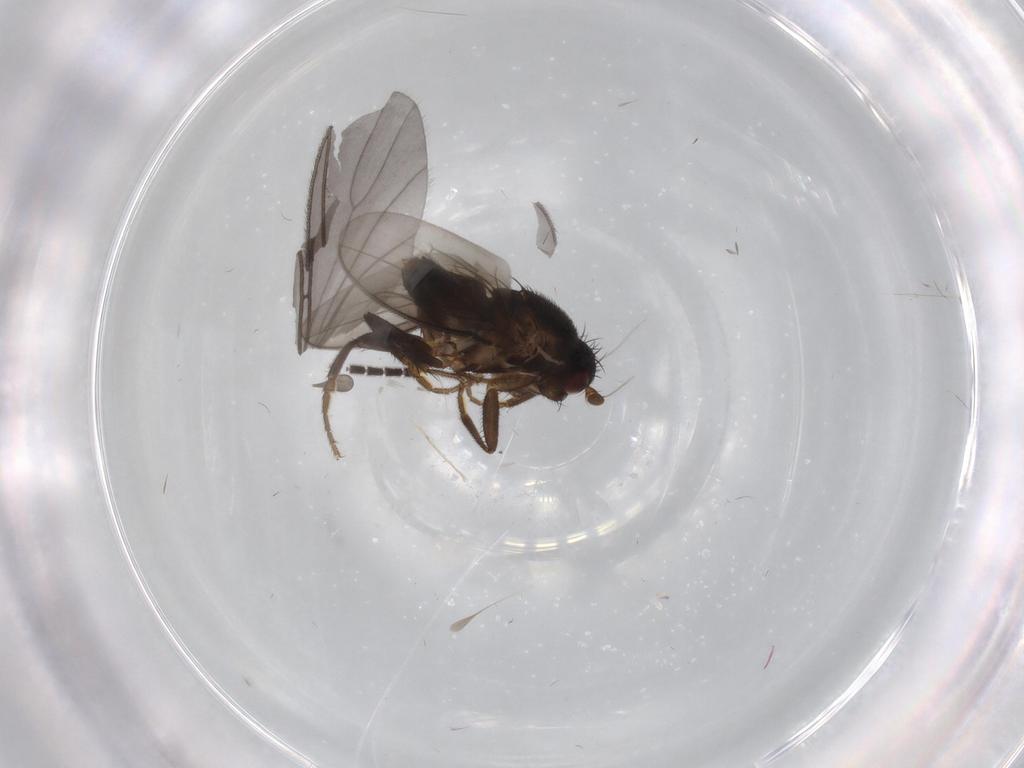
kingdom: Animalia
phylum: Arthropoda
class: Insecta
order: Diptera
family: Sphaeroceridae
